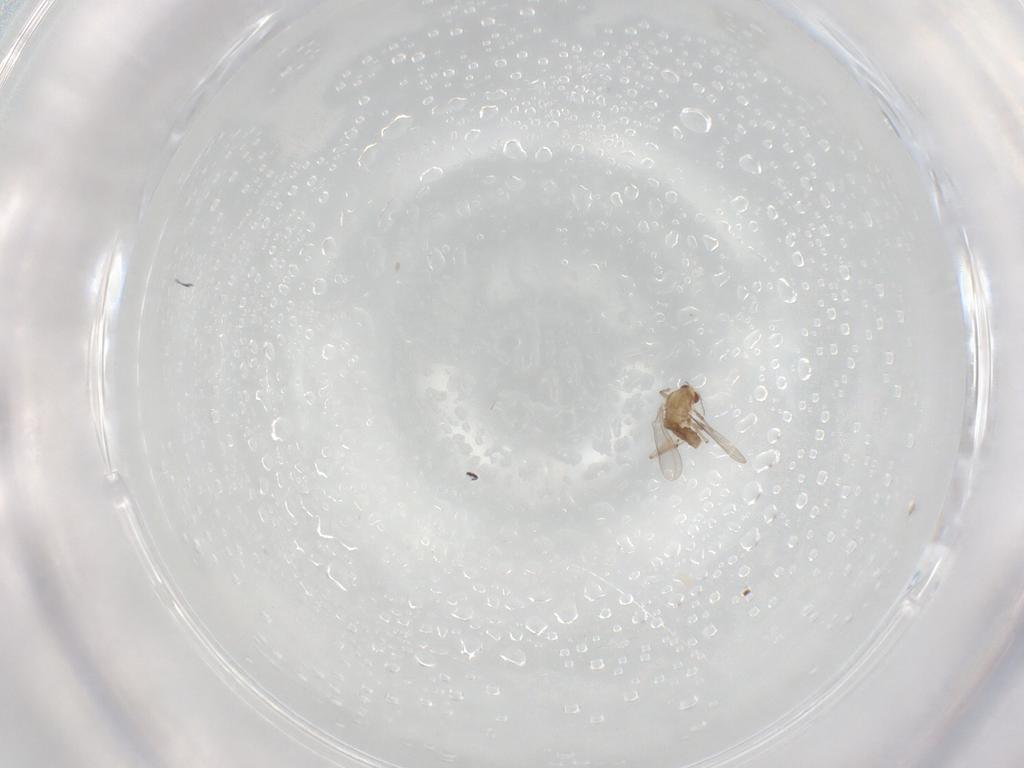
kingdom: Animalia
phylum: Arthropoda
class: Insecta
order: Diptera
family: Chironomidae
